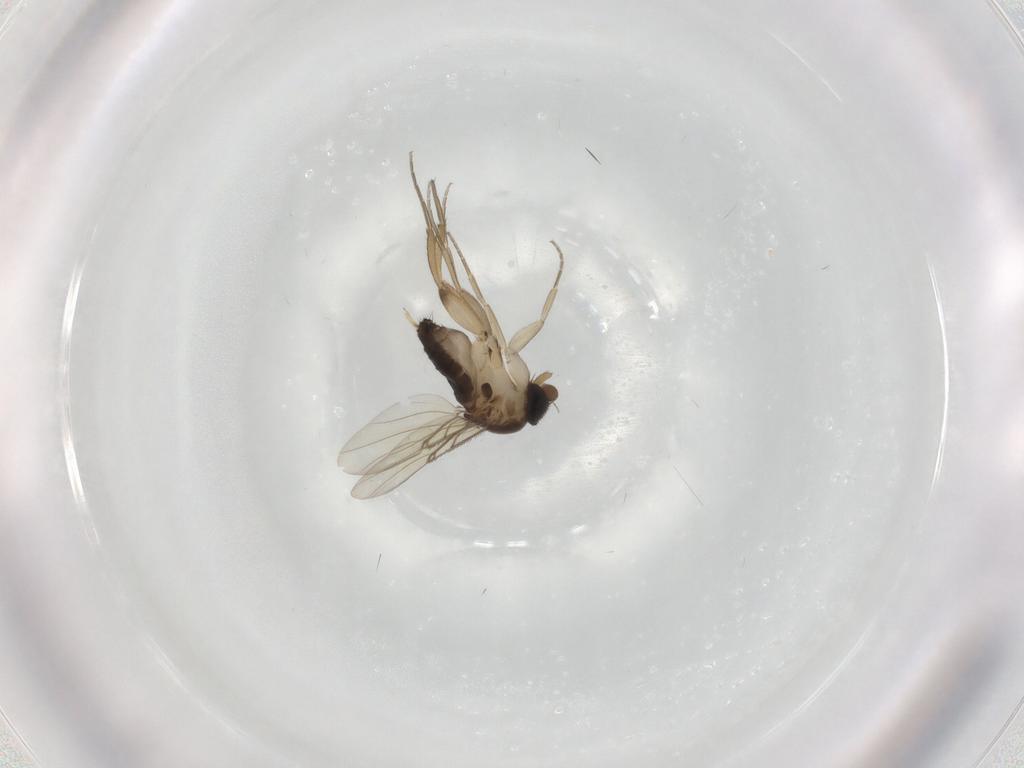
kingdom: Animalia
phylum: Arthropoda
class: Insecta
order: Diptera
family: Phoridae
